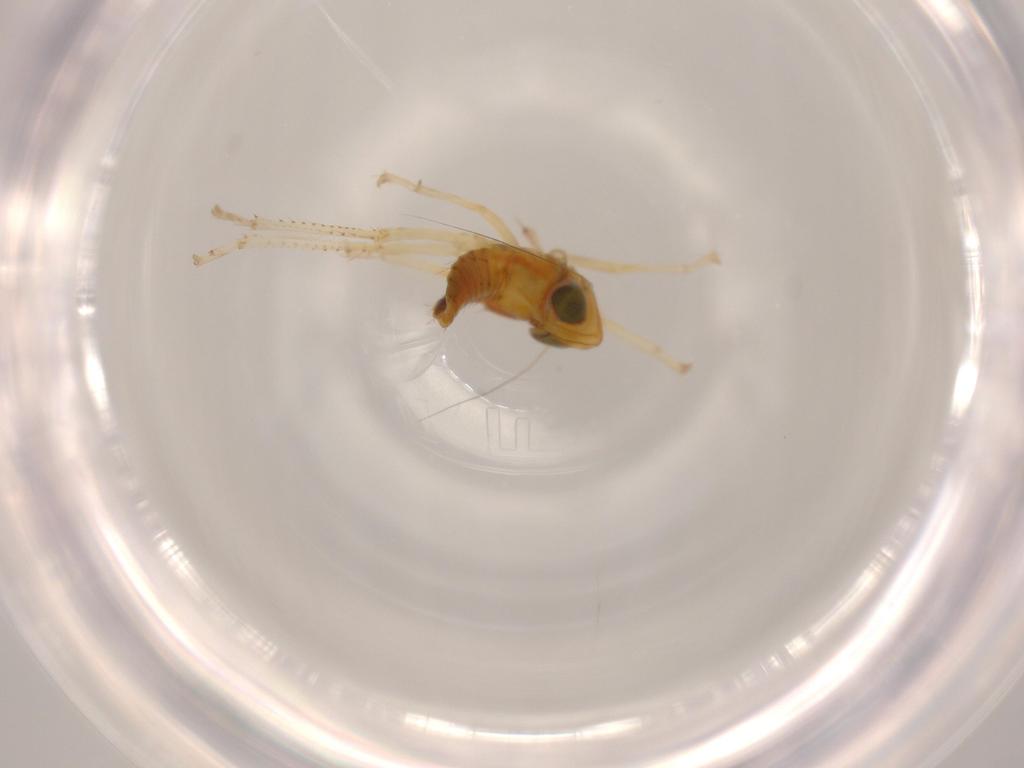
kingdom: Animalia
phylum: Arthropoda
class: Insecta
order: Hemiptera
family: Cicadellidae
